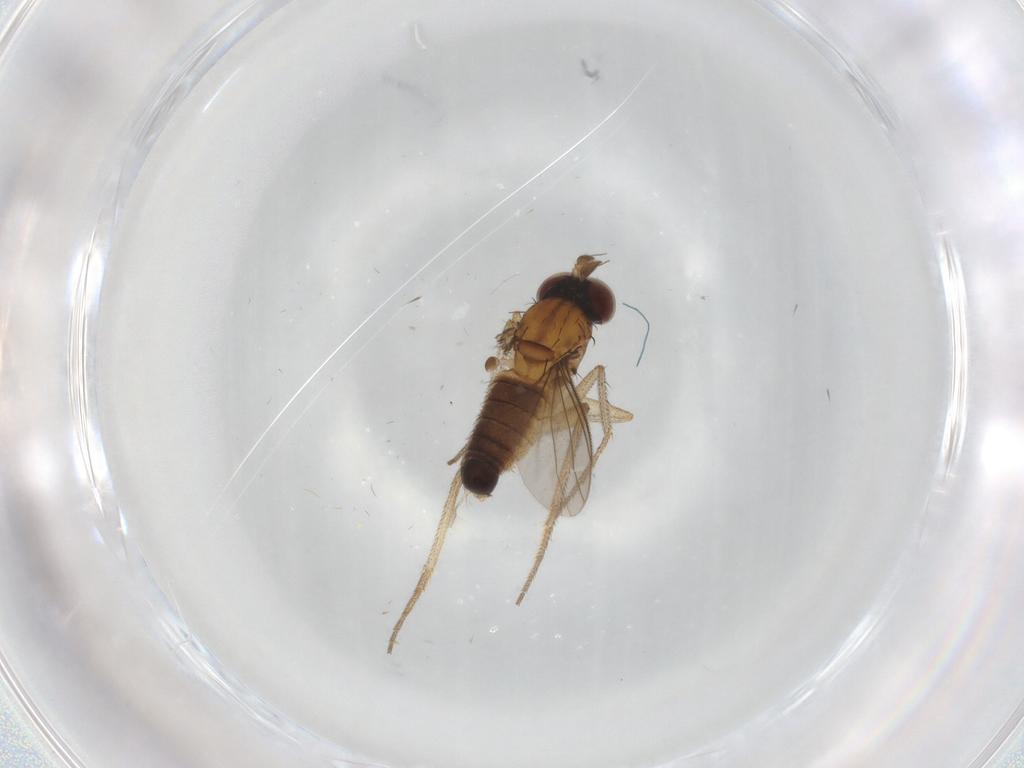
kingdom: Animalia
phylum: Arthropoda
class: Insecta
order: Diptera
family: Dolichopodidae
